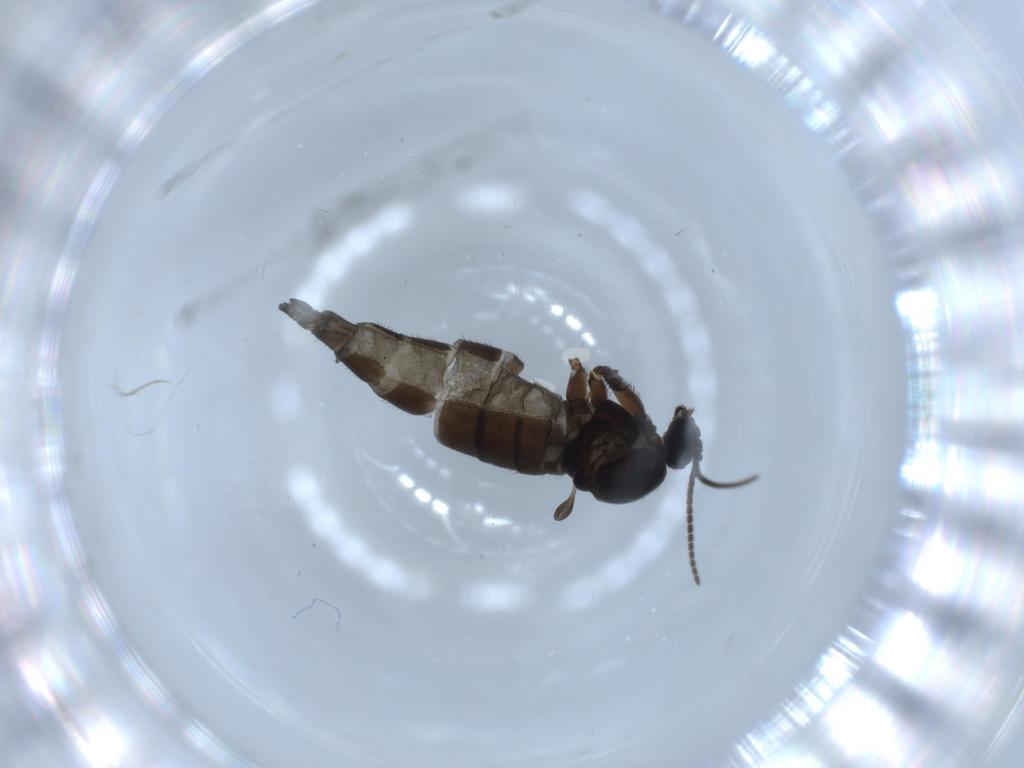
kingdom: Animalia
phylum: Arthropoda
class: Insecta
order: Diptera
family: Sciaridae
